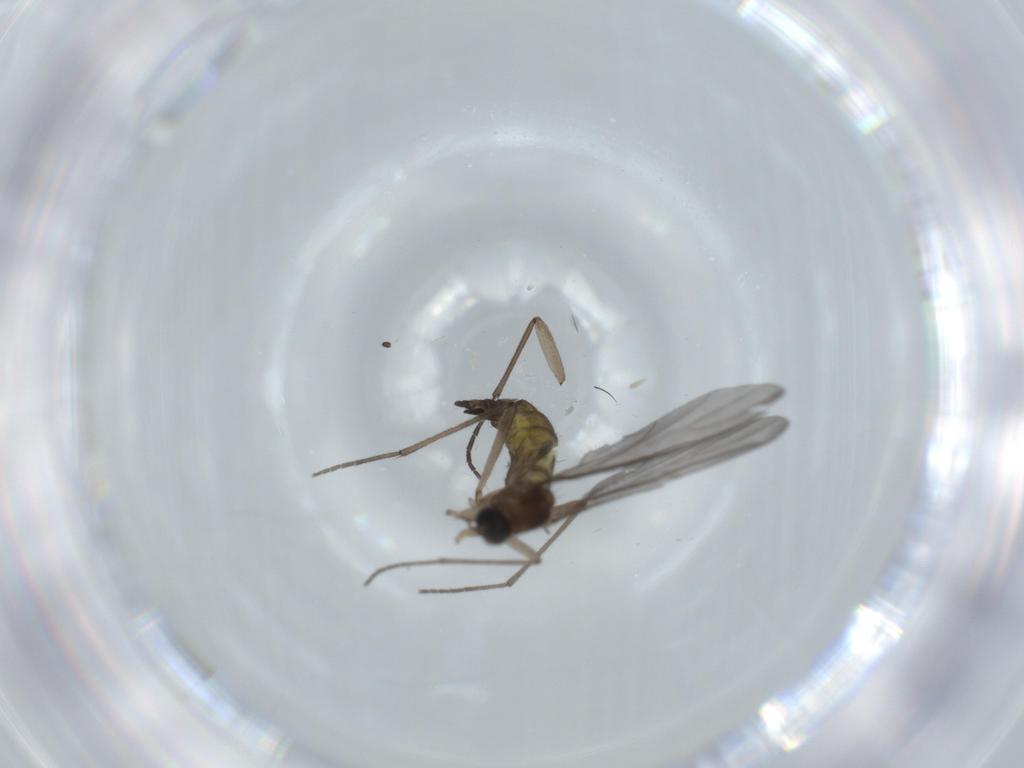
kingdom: Animalia
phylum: Arthropoda
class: Insecta
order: Diptera
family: Sciaridae
